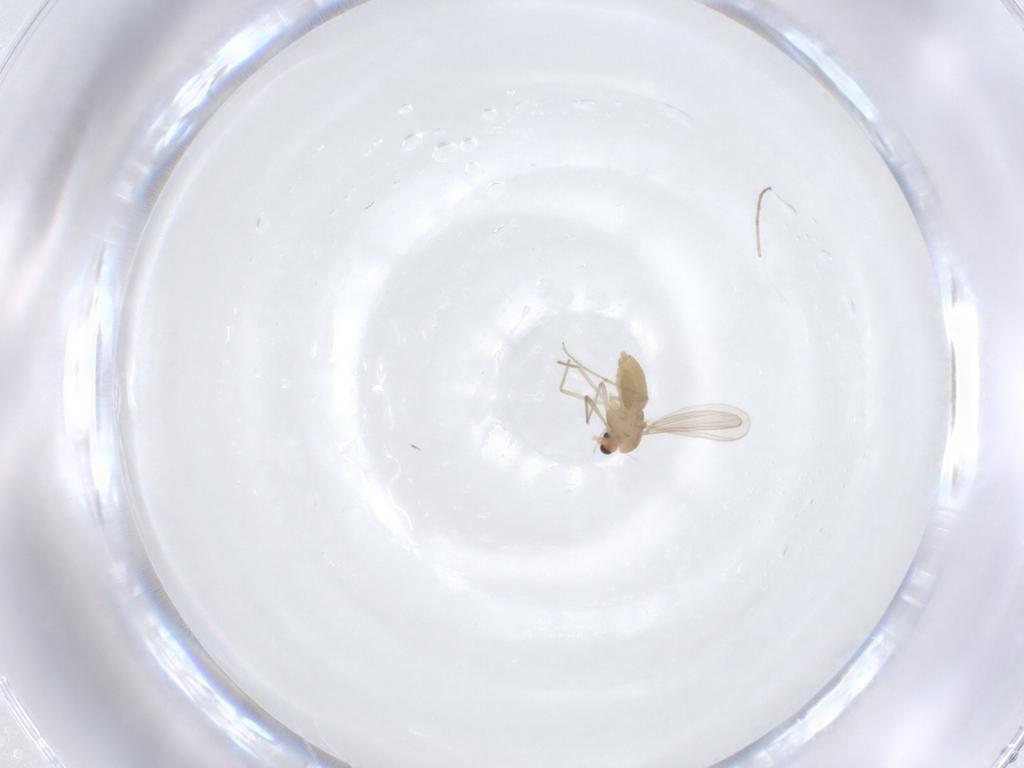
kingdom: Animalia
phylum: Arthropoda
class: Insecta
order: Diptera
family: Chironomidae
